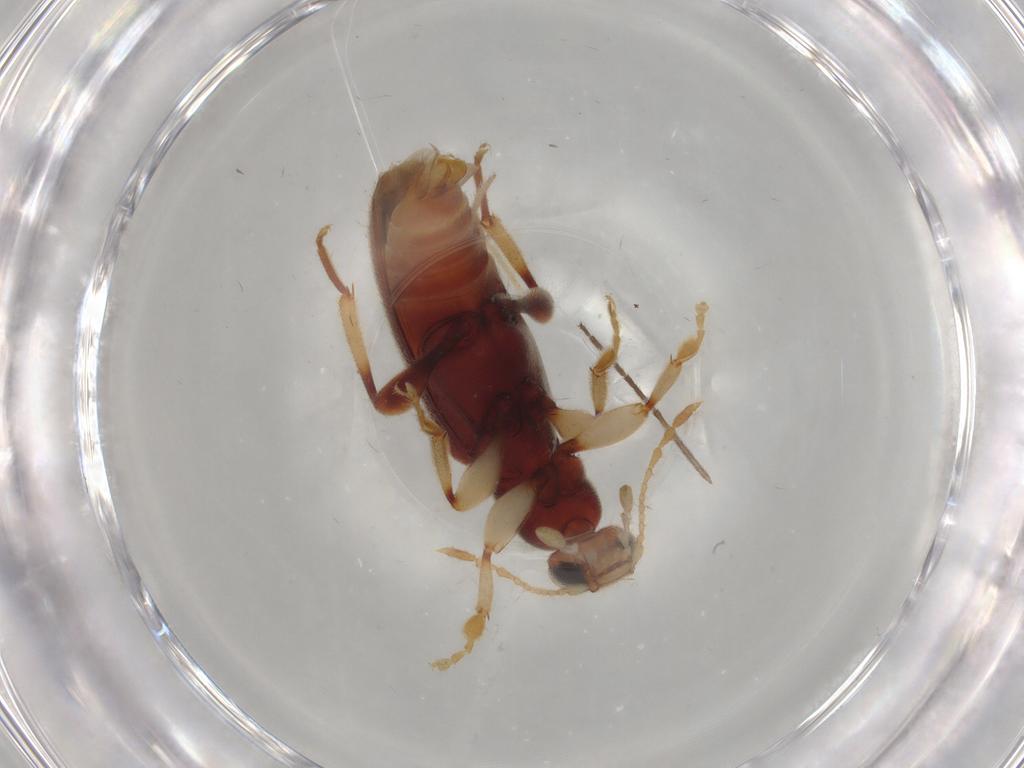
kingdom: Animalia
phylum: Arthropoda
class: Insecta
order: Coleoptera
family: Anthicidae
